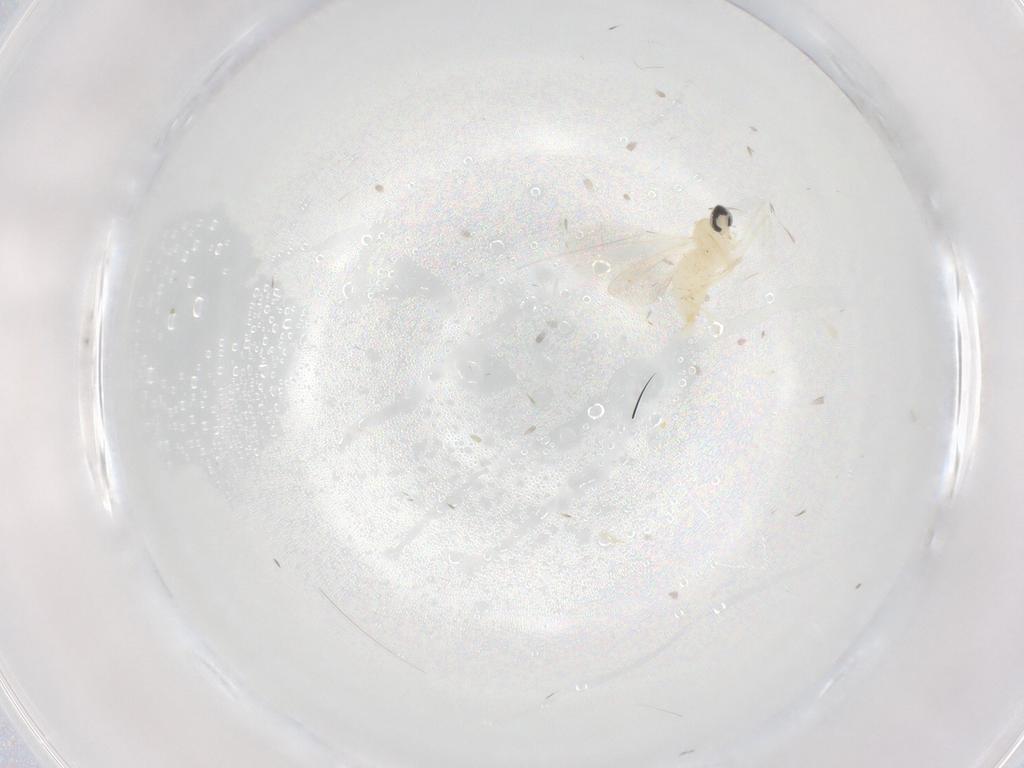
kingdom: Animalia
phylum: Arthropoda
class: Insecta
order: Diptera
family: Cecidomyiidae
